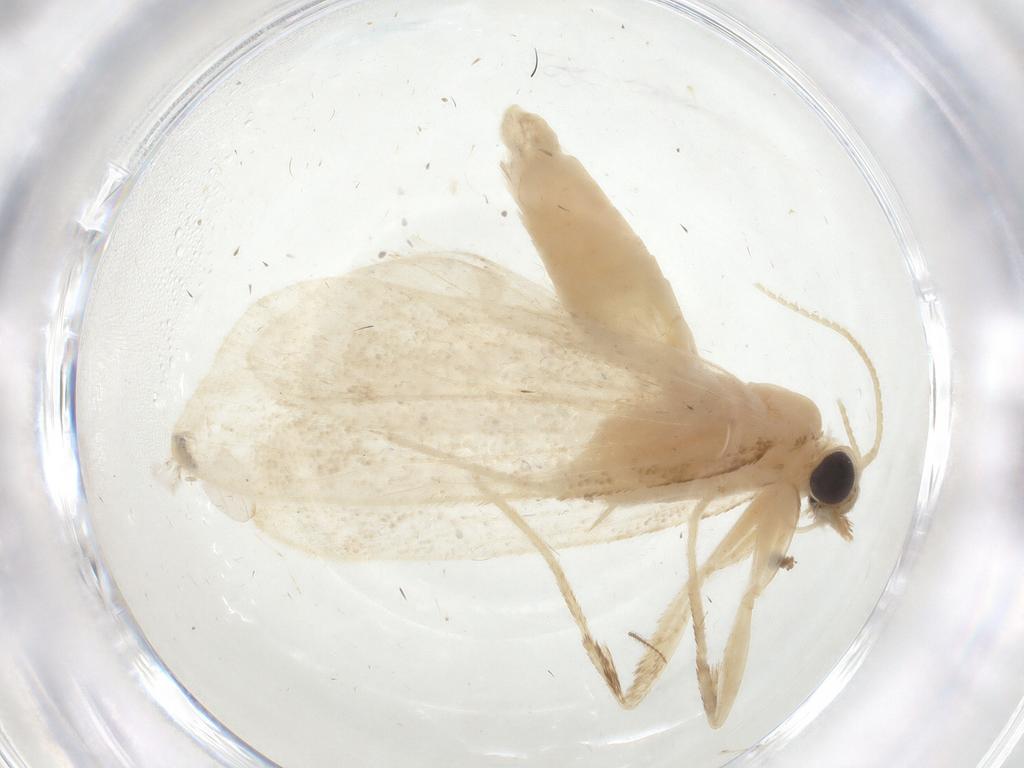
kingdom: Animalia
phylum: Arthropoda
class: Insecta
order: Lepidoptera
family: Crambidae
